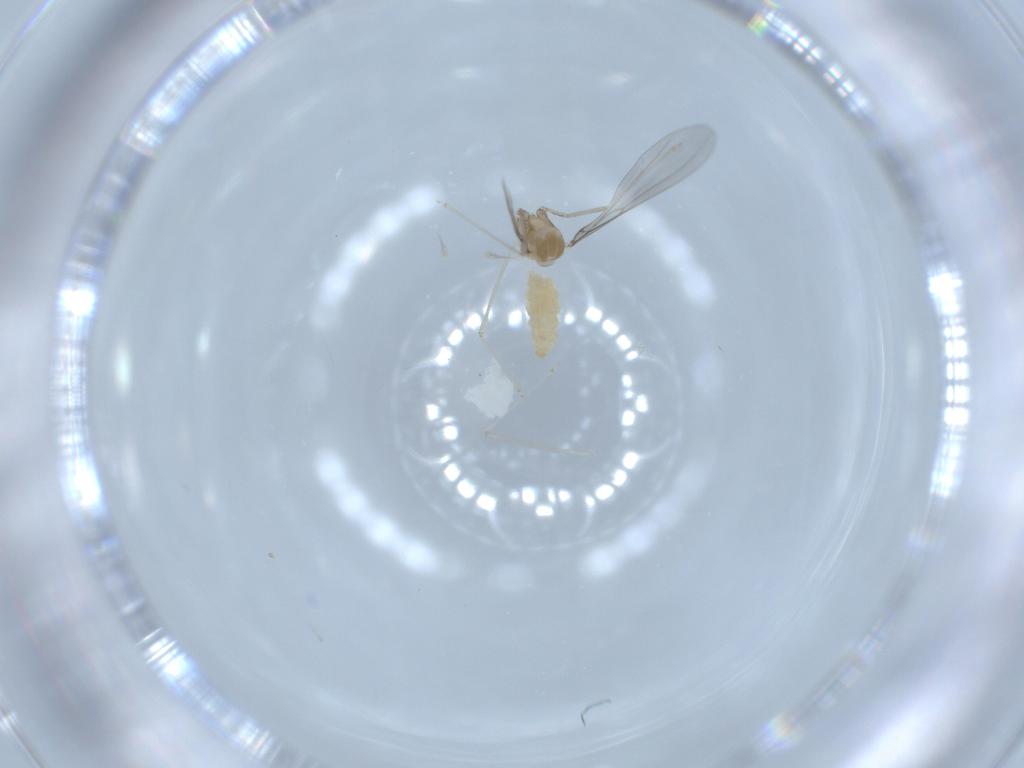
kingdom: Animalia
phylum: Arthropoda
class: Insecta
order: Diptera
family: Cecidomyiidae
